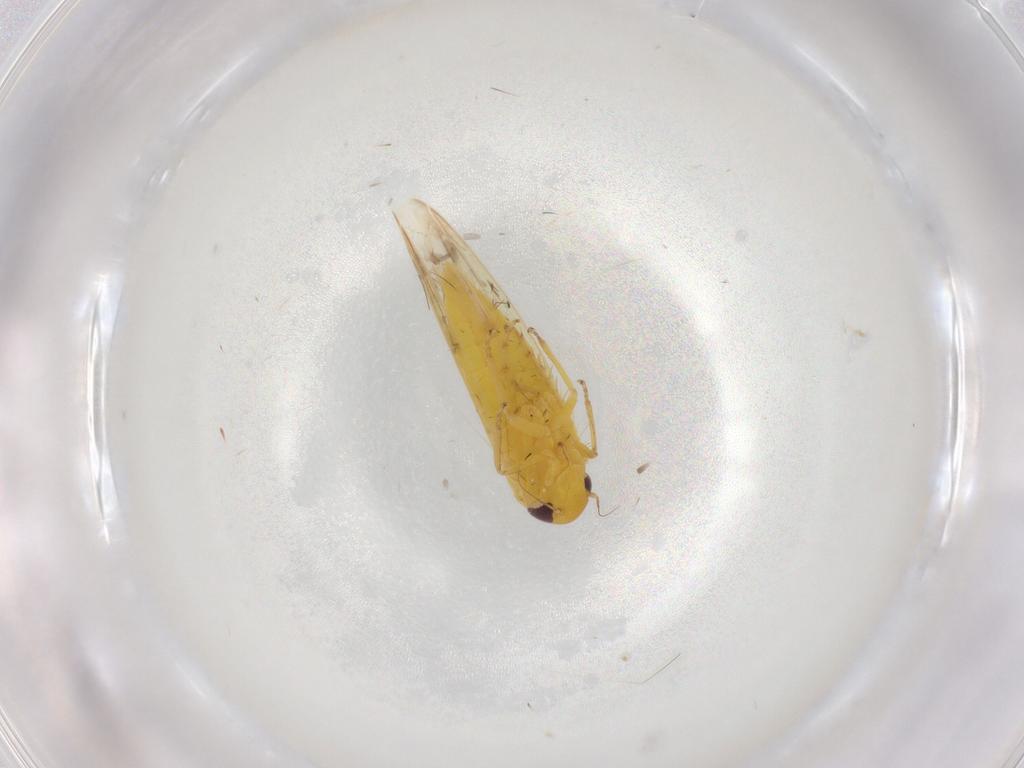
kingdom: Animalia
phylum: Arthropoda
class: Insecta
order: Hemiptera
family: Cicadellidae
